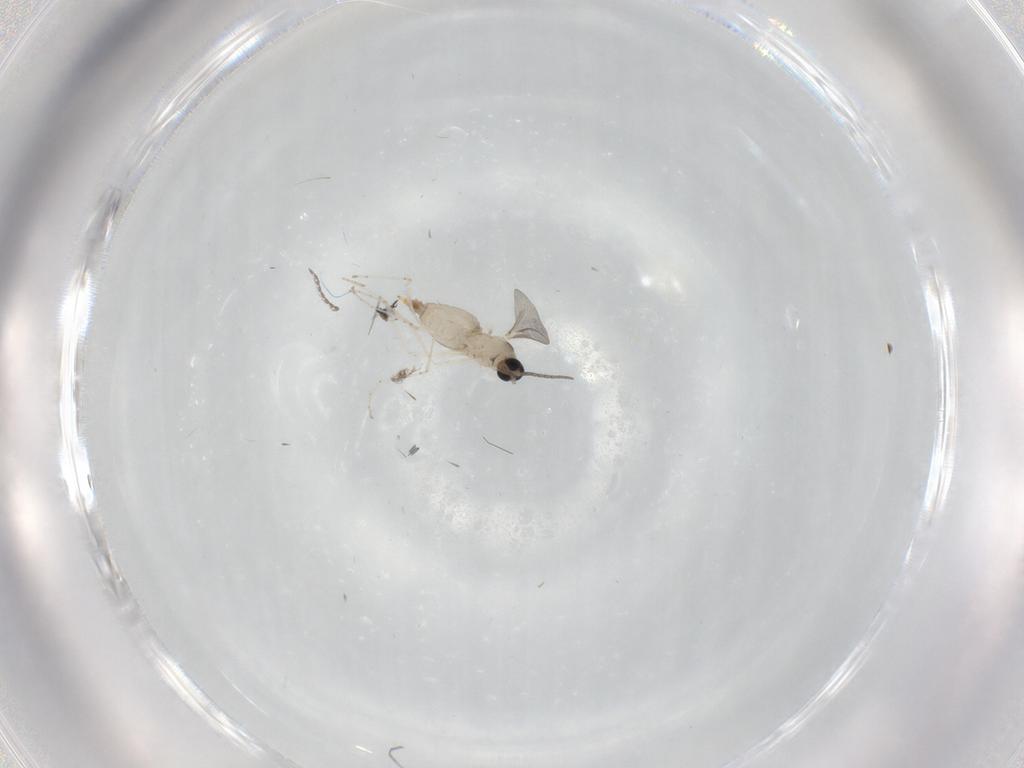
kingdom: Animalia
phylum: Arthropoda
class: Insecta
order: Diptera
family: Cecidomyiidae
